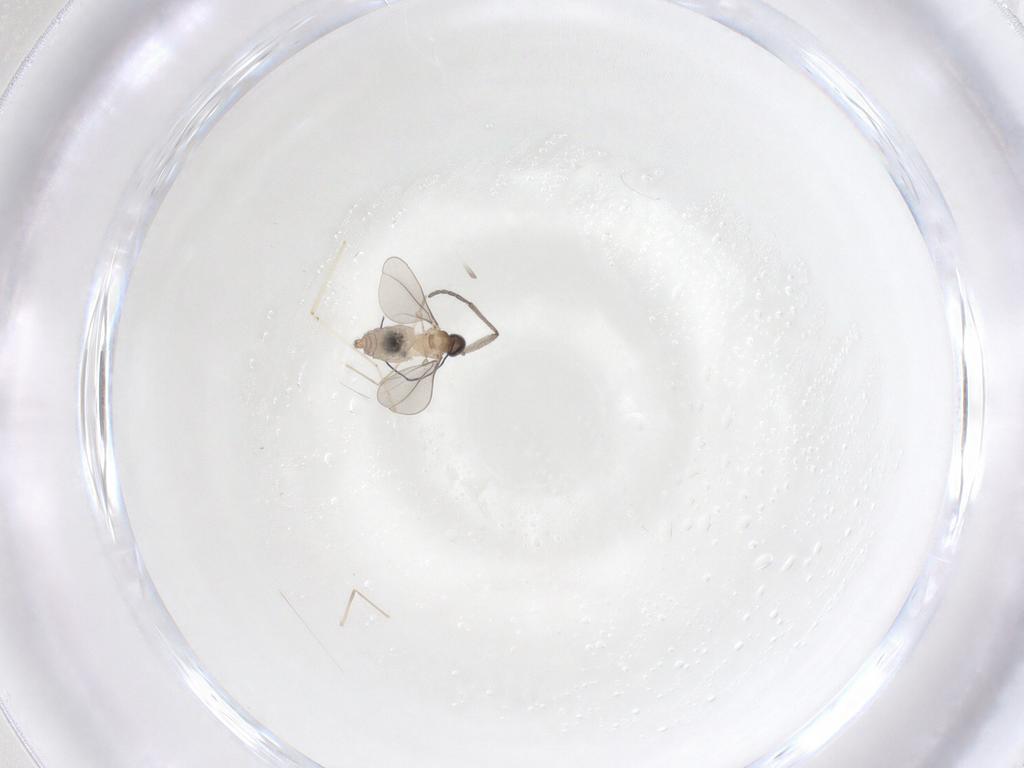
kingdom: Animalia
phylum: Arthropoda
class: Insecta
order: Diptera
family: Cecidomyiidae
